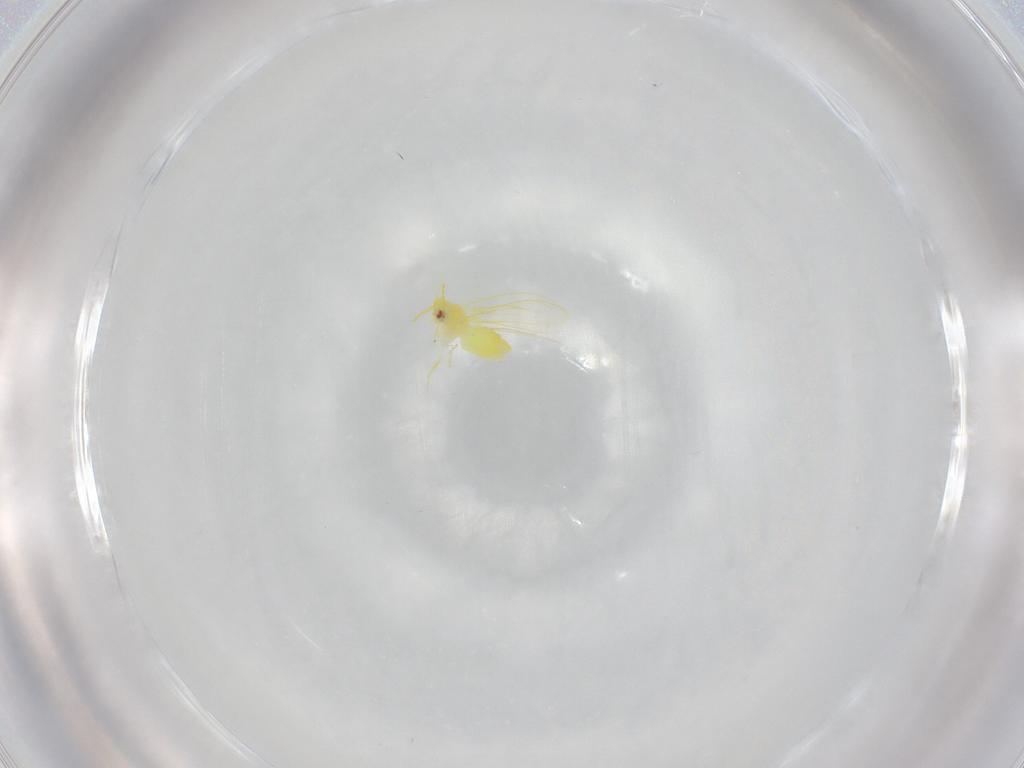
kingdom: Animalia
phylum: Arthropoda
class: Insecta
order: Hemiptera
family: Aleyrodidae
